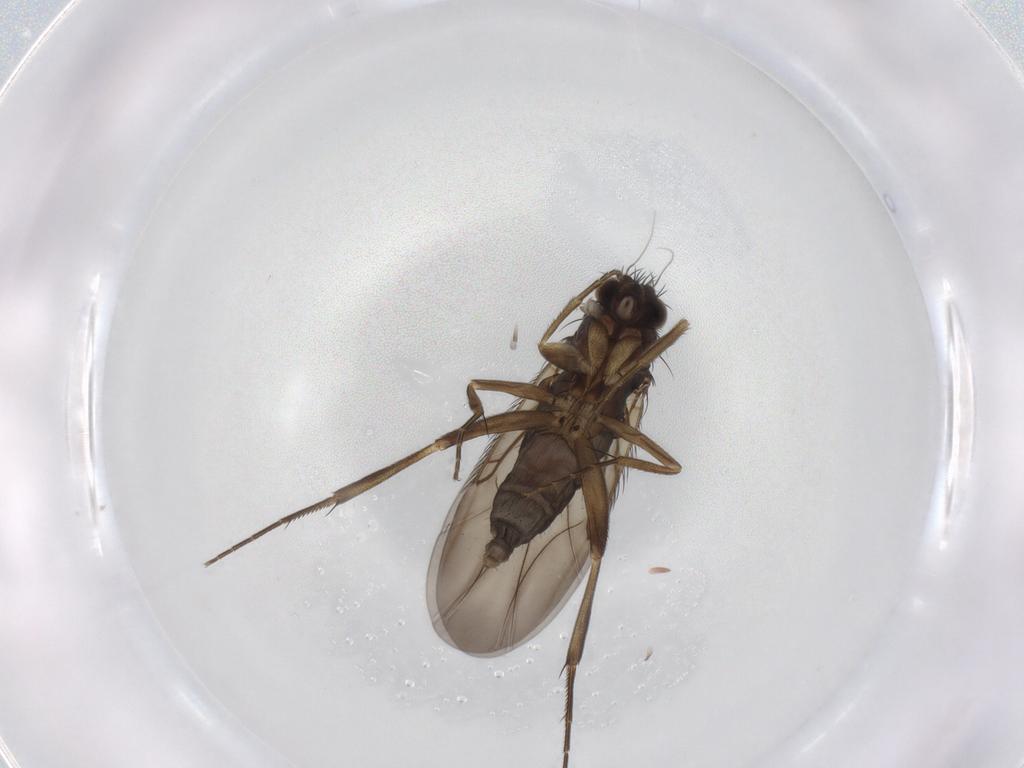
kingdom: Animalia
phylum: Arthropoda
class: Insecta
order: Diptera
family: Phoridae
